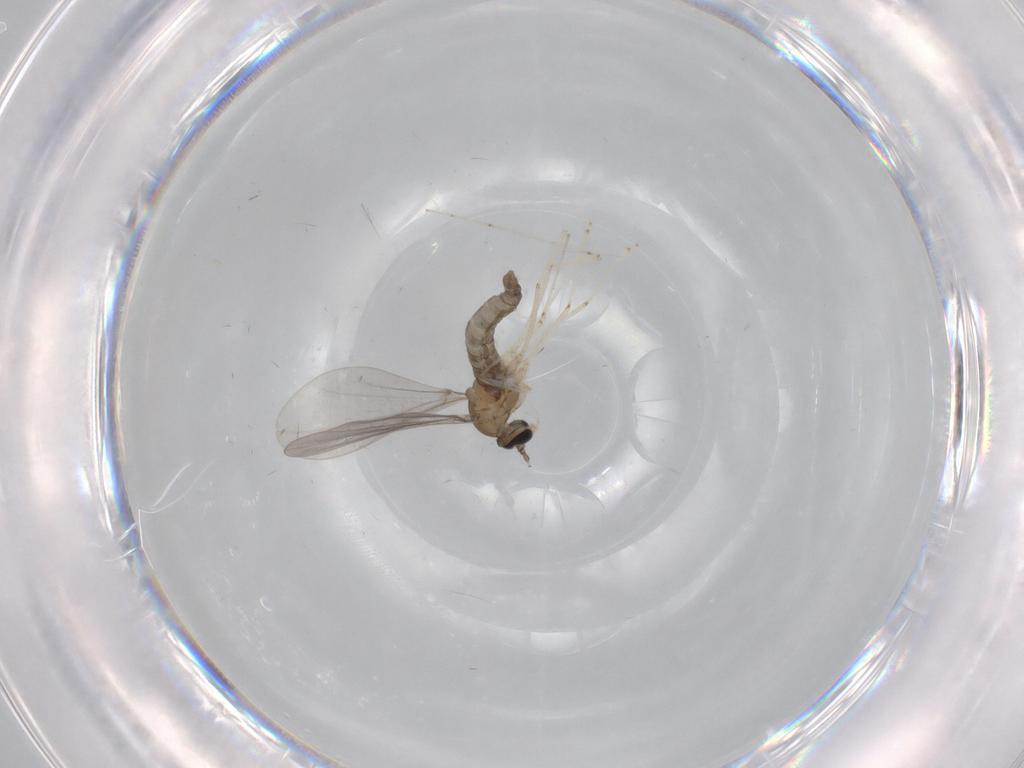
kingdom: Animalia
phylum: Arthropoda
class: Insecta
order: Diptera
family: Cecidomyiidae
